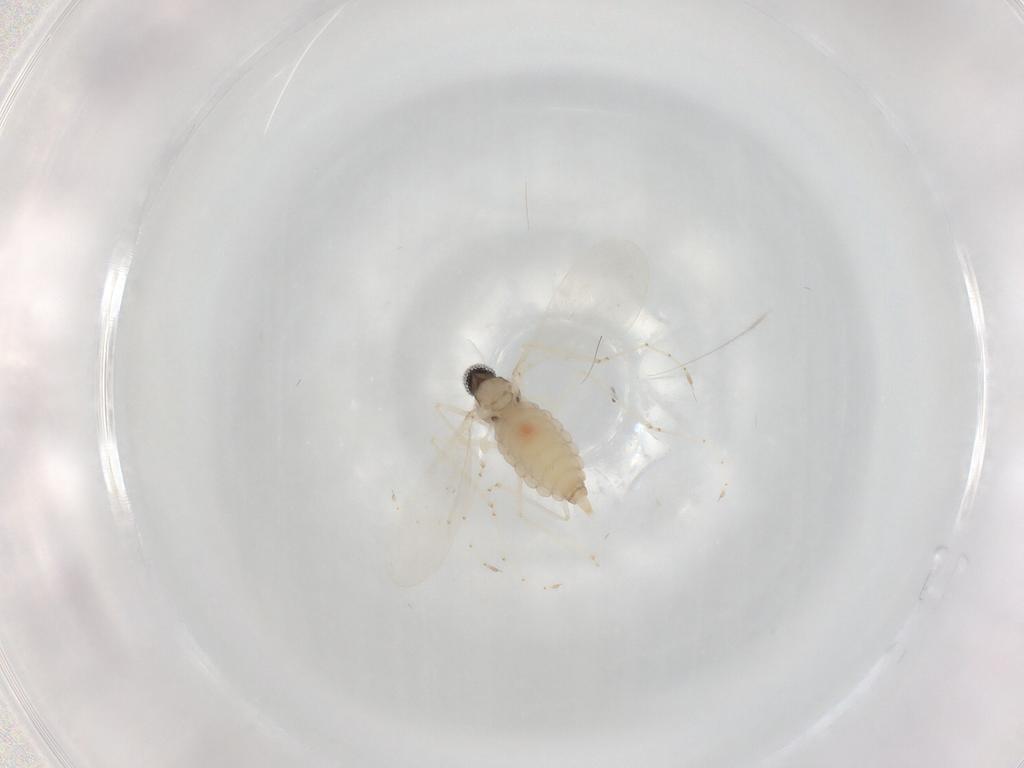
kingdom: Animalia
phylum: Arthropoda
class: Insecta
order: Diptera
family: Cecidomyiidae
